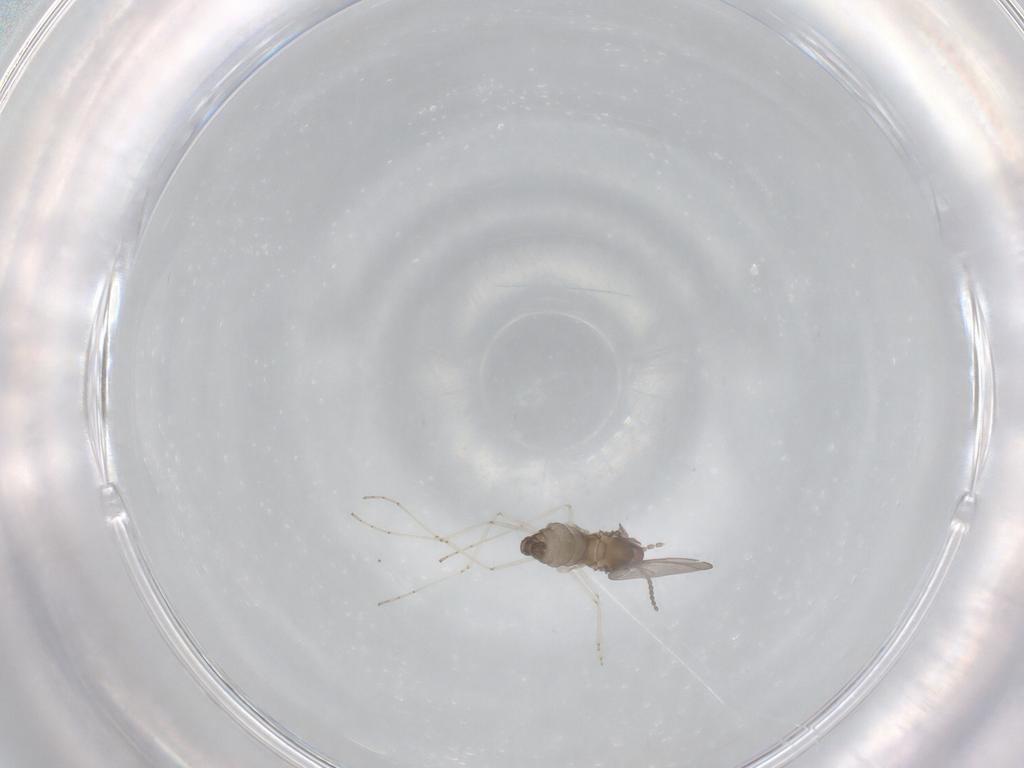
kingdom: Animalia
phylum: Arthropoda
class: Insecta
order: Diptera
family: Cecidomyiidae
